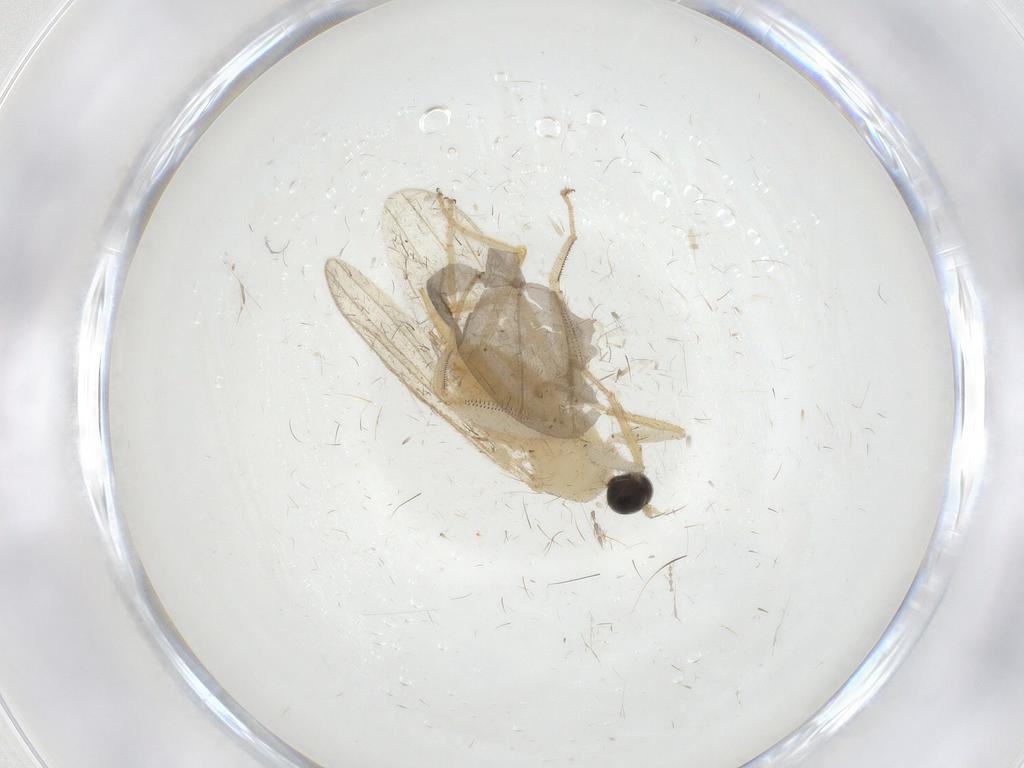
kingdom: Animalia
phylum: Arthropoda
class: Insecta
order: Diptera
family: Hybotidae
